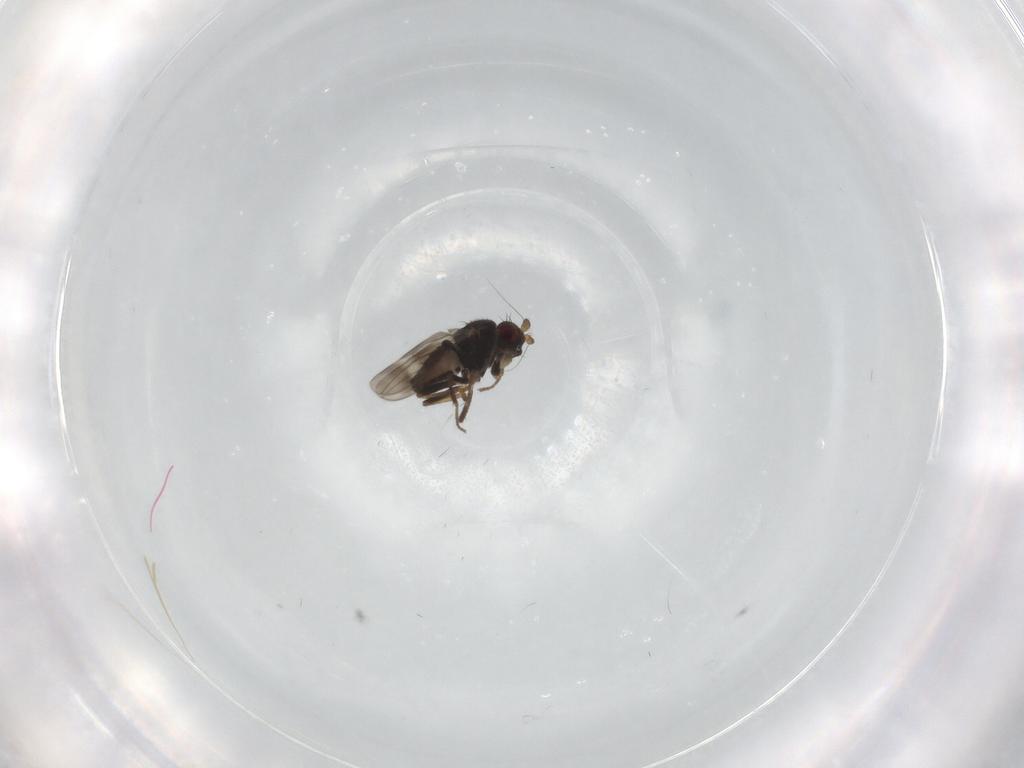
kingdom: Animalia
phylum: Arthropoda
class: Insecta
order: Diptera
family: Sphaeroceridae
